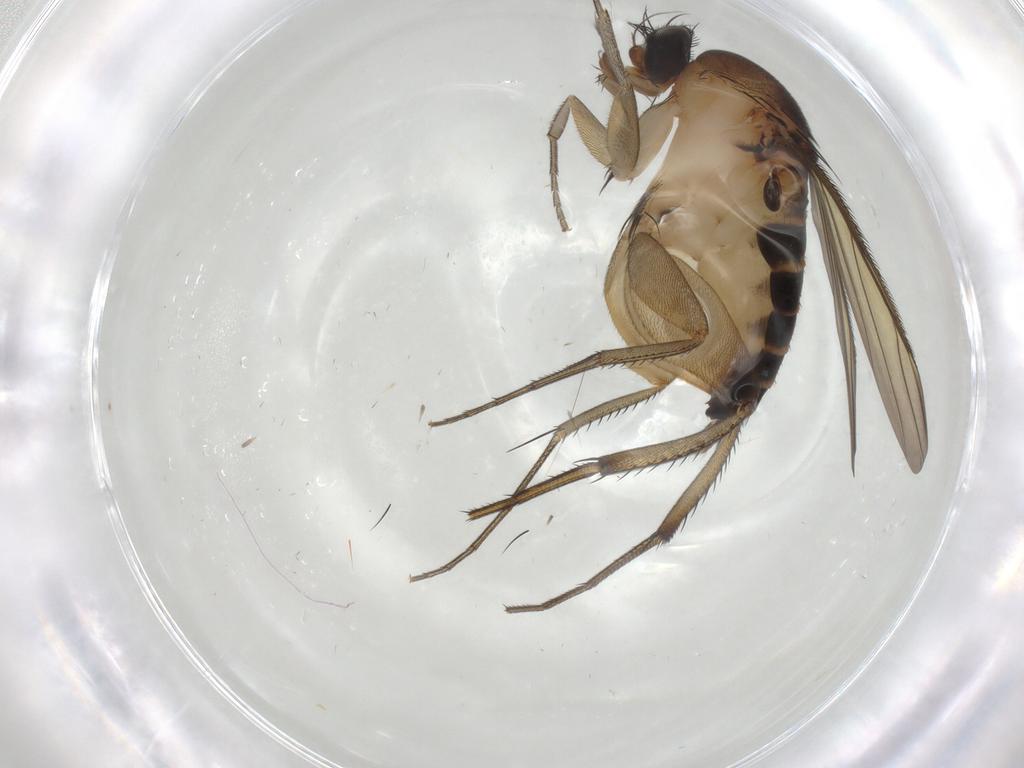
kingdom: Animalia
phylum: Arthropoda
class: Insecta
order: Diptera
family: Mycetophilidae
